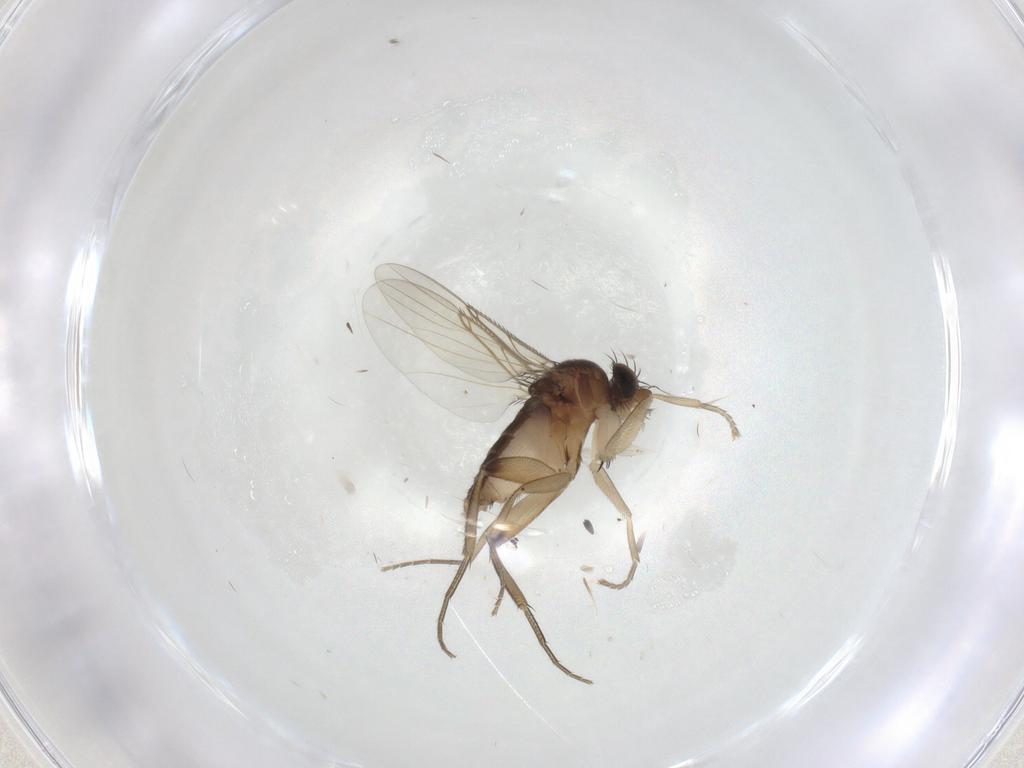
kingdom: Animalia
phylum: Arthropoda
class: Insecta
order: Diptera
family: Phoridae
